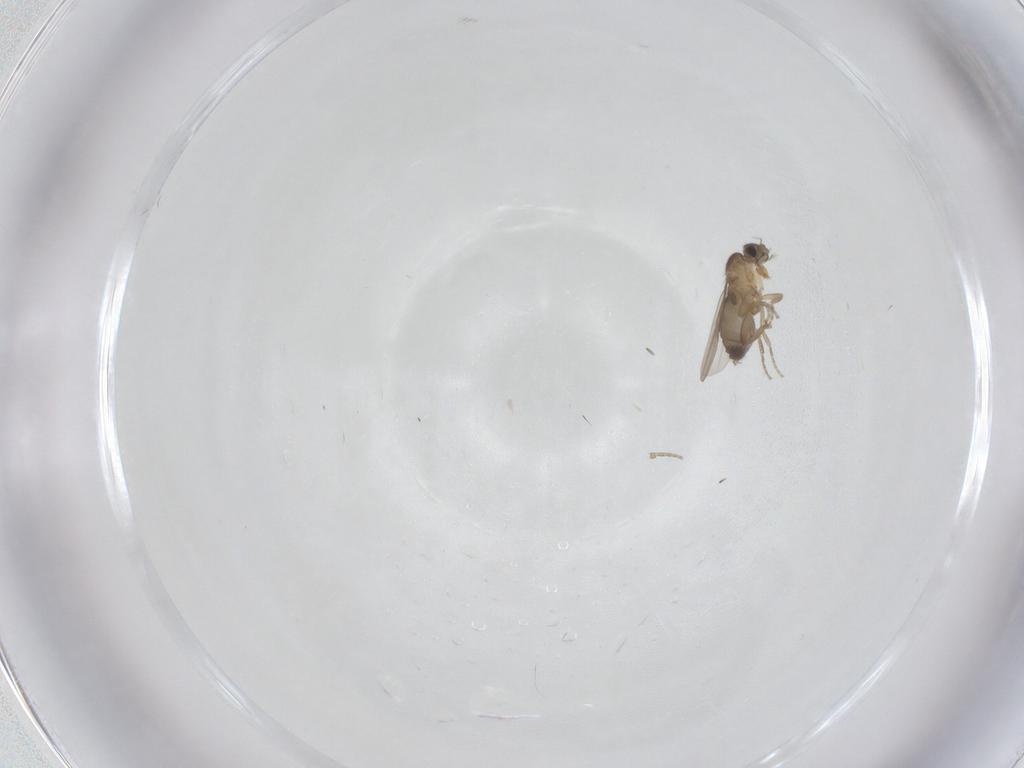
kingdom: Animalia
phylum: Arthropoda
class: Insecta
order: Diptera
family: Phoridae
